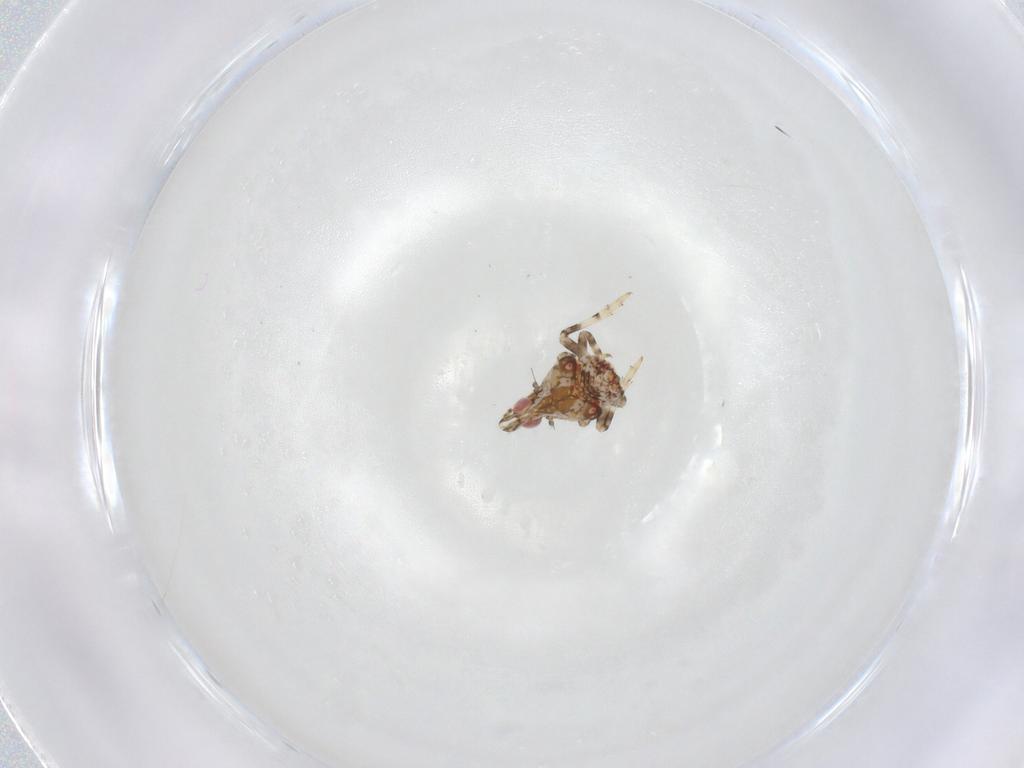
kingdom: Animalia
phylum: Arthropoda
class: Insecta
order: Hemiptera
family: Tropiduchidae
